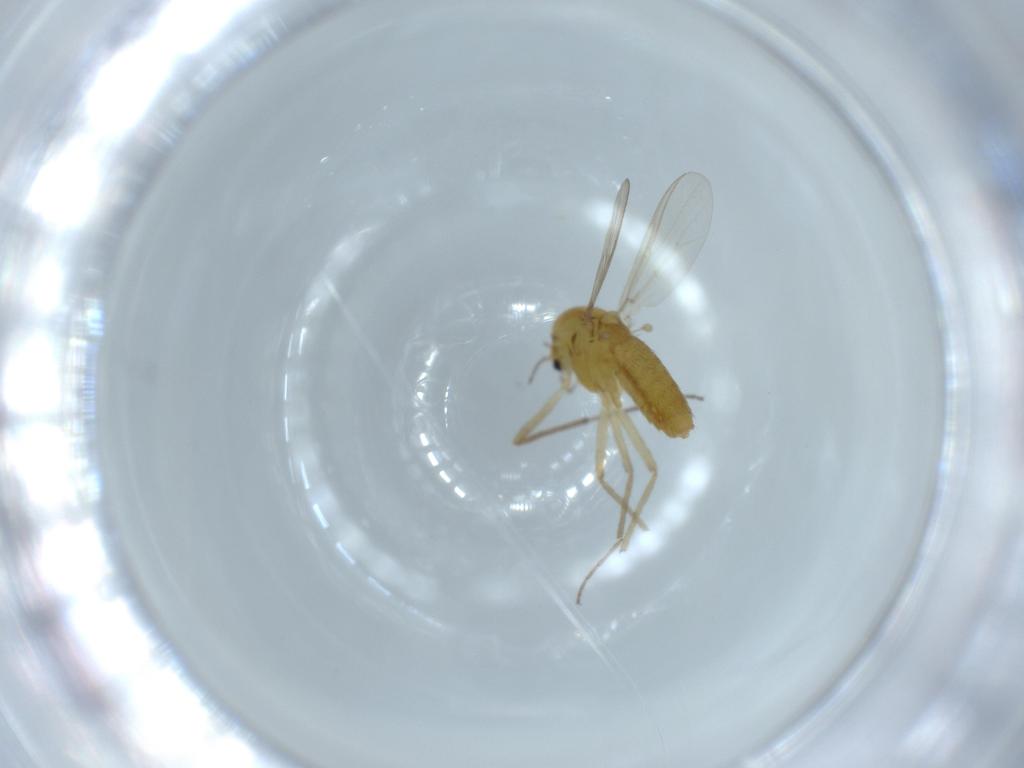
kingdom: Animalia
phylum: Arthropoda
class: Insecta
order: Diptera
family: Chironomidae
